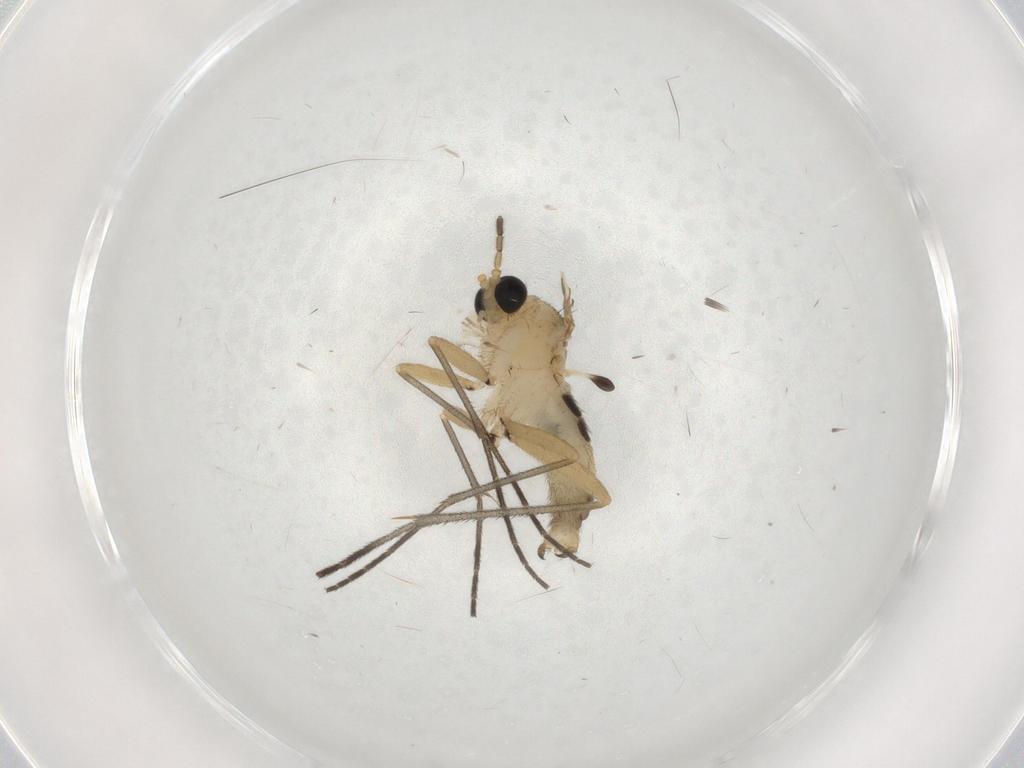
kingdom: Animalia
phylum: Arthropoda
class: Insecta
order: Diptera
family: Sciaridae
